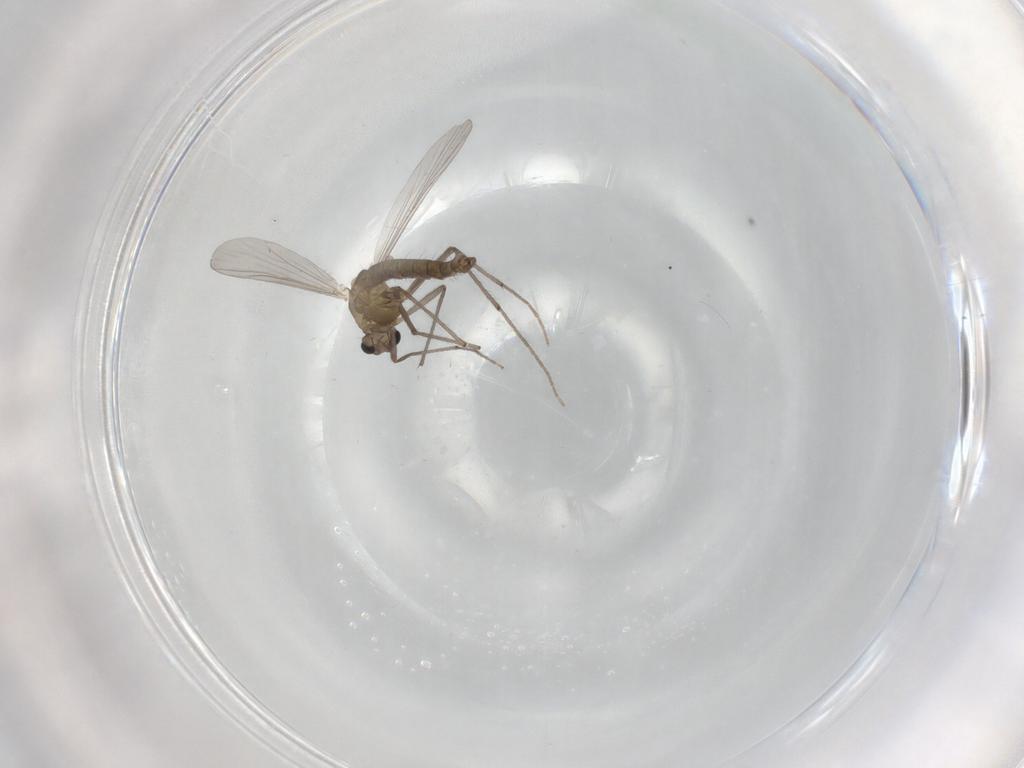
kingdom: Animalia
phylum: Arthropoda
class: Insecta
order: Diptera
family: Chironomidae
